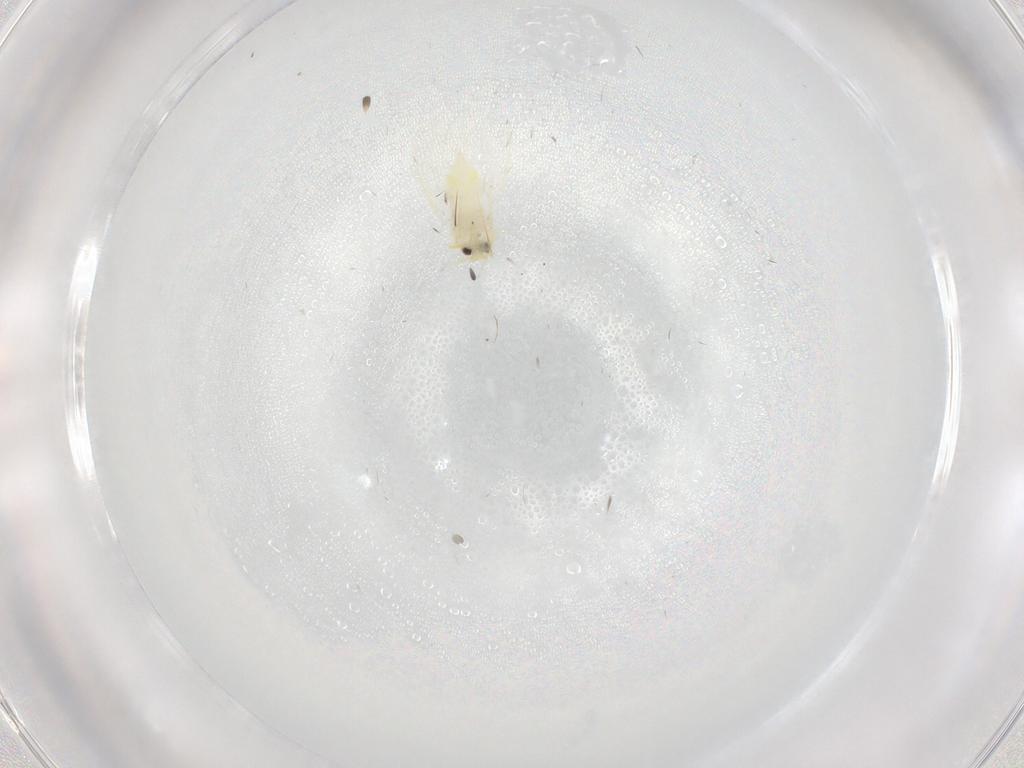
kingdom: Animalia
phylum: Arthropoda
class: Insecta
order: Hemiptera
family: Aleyrodidae
